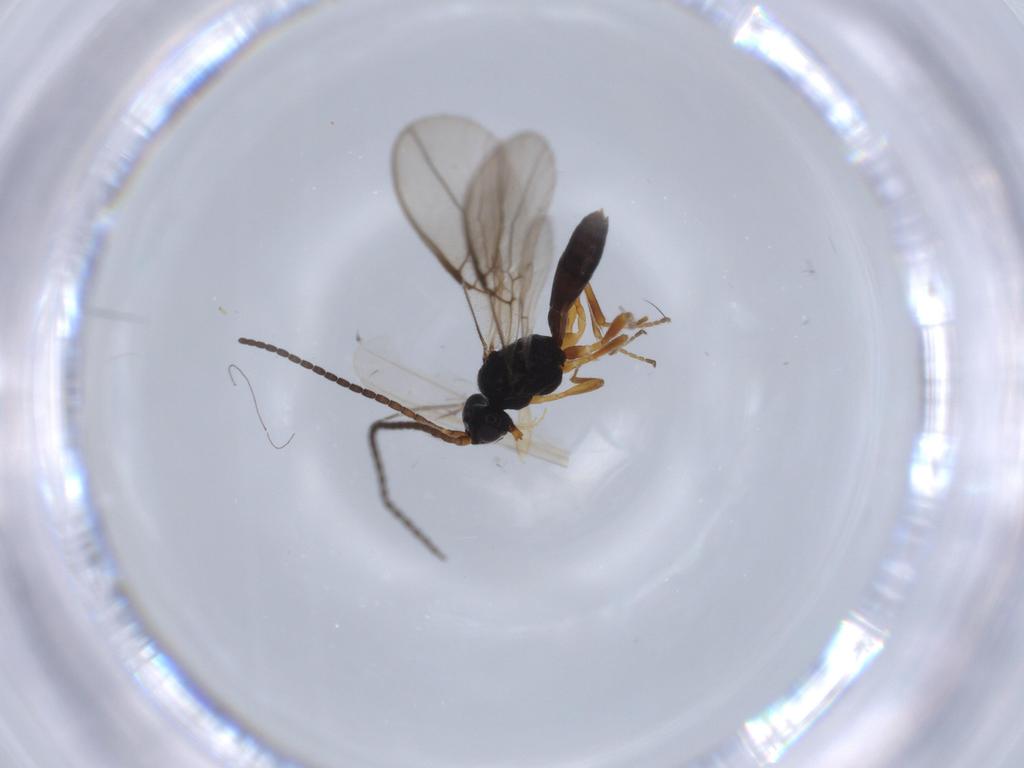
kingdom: Animalia
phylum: Arthropoda
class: Insecta
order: Hymenoptera
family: Braconidae
